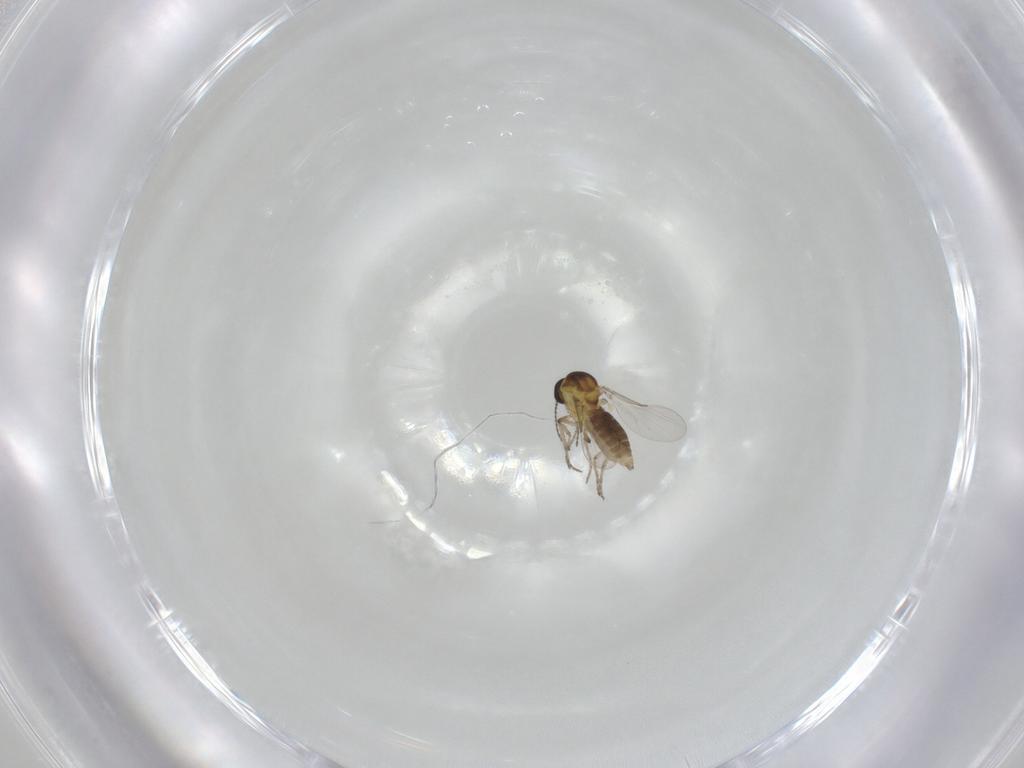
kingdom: Animalia
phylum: Arthropoda
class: Insecta
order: Diptera
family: Ceratopogonidae
